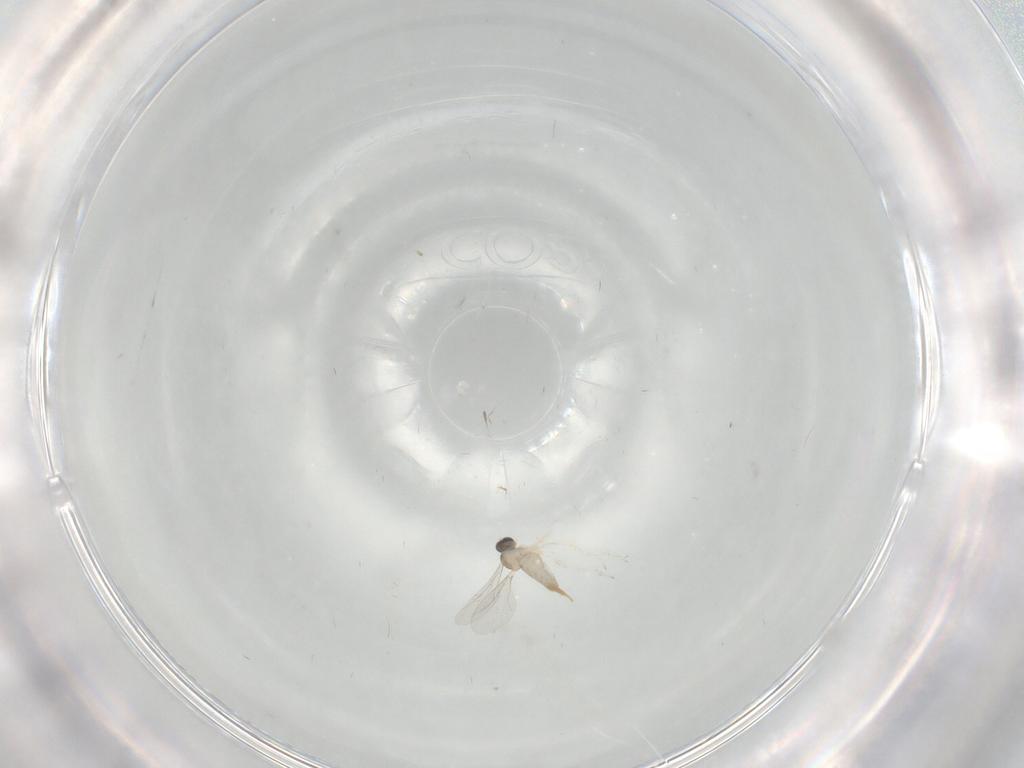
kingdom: Animalia
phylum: Arthropoda
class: Insecta
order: Diptera
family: Cecidomyiidae
